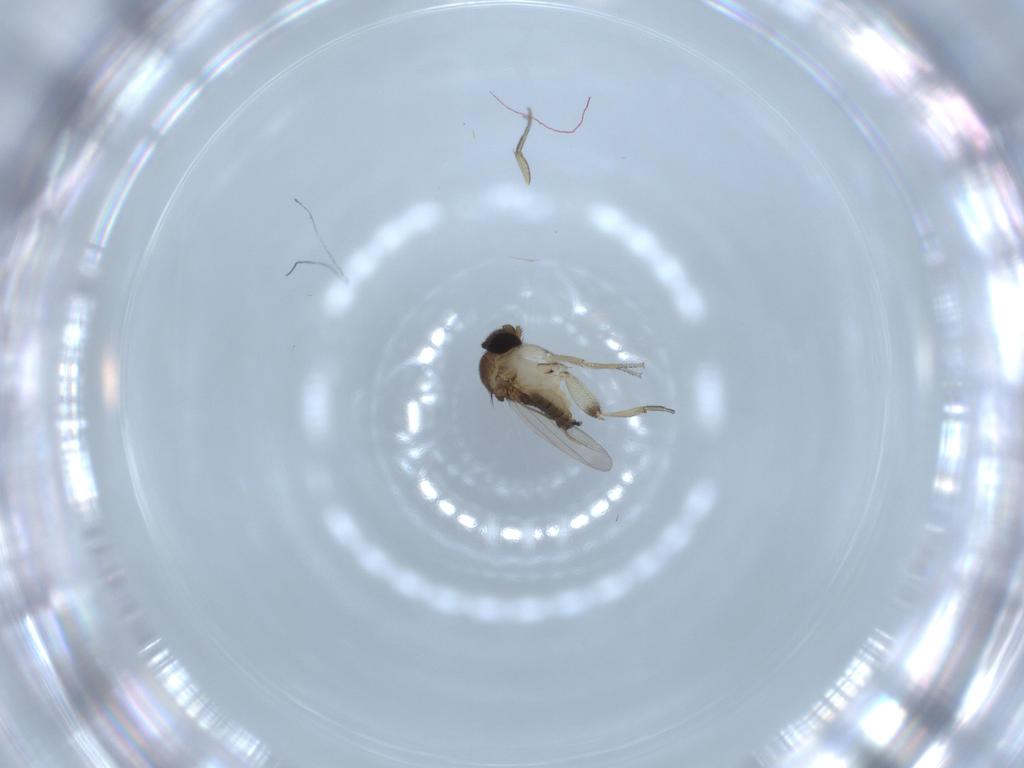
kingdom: Animalia
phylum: Arthropoda
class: Insecta
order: Diptera
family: Phoridae
